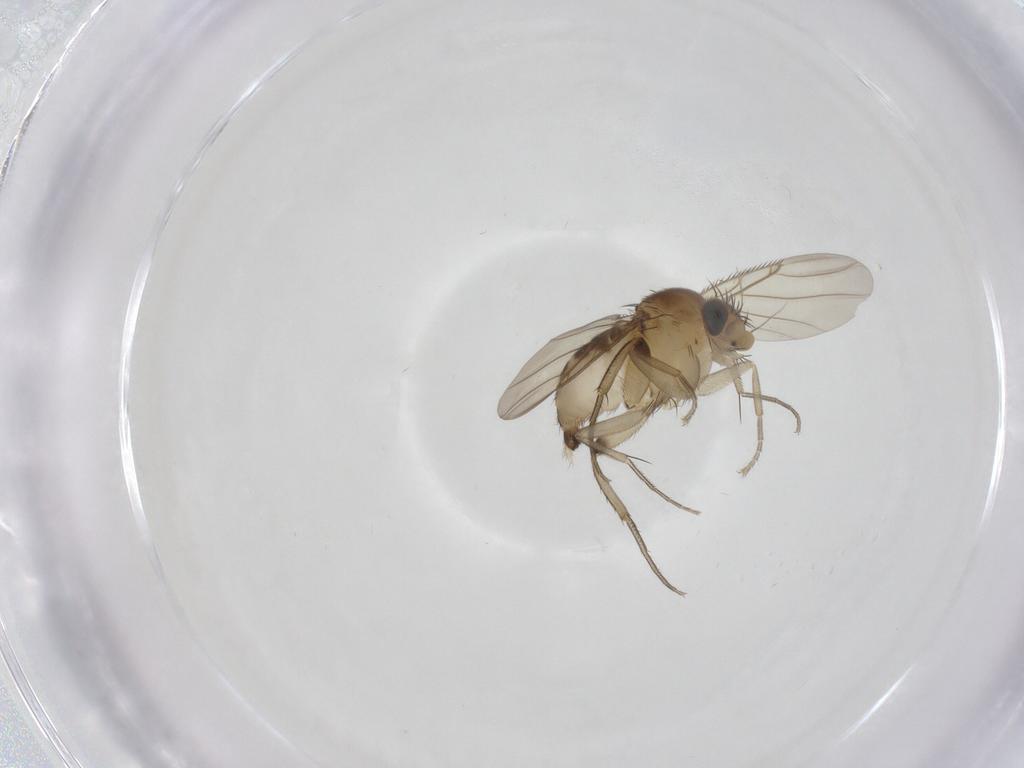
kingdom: Animalia
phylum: Arthropoda
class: Insecta
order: Diptera
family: Phoridae
